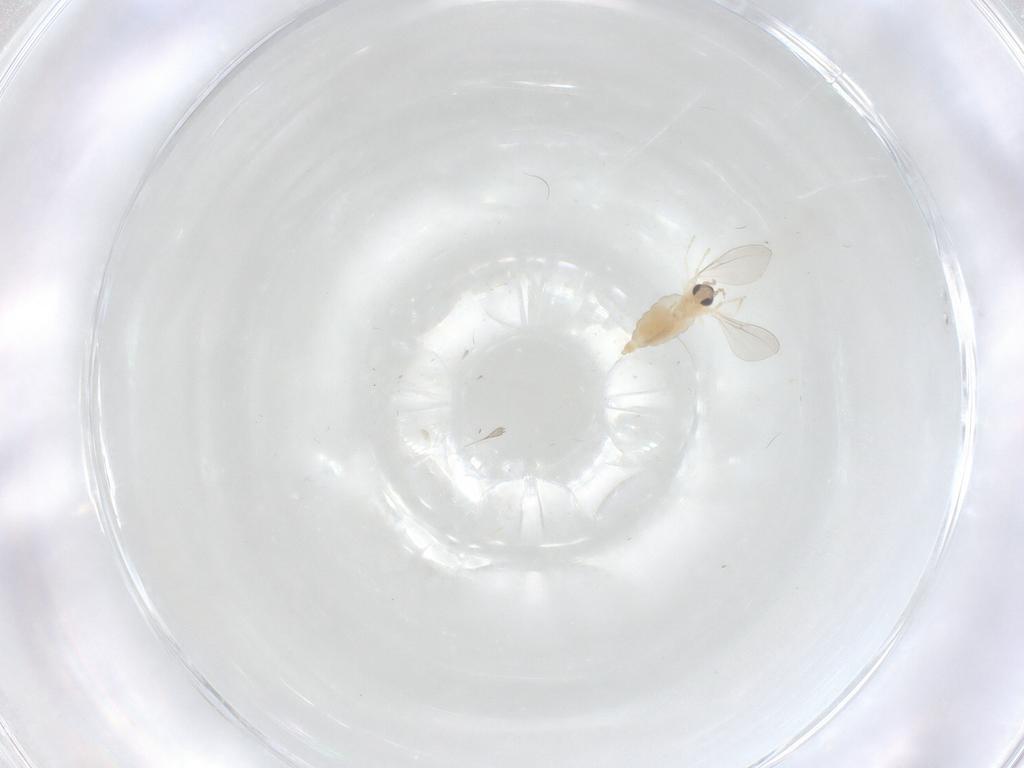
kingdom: Animalia
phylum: Arthropoda
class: Insecta
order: Diptera
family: Cecidomyiidae
